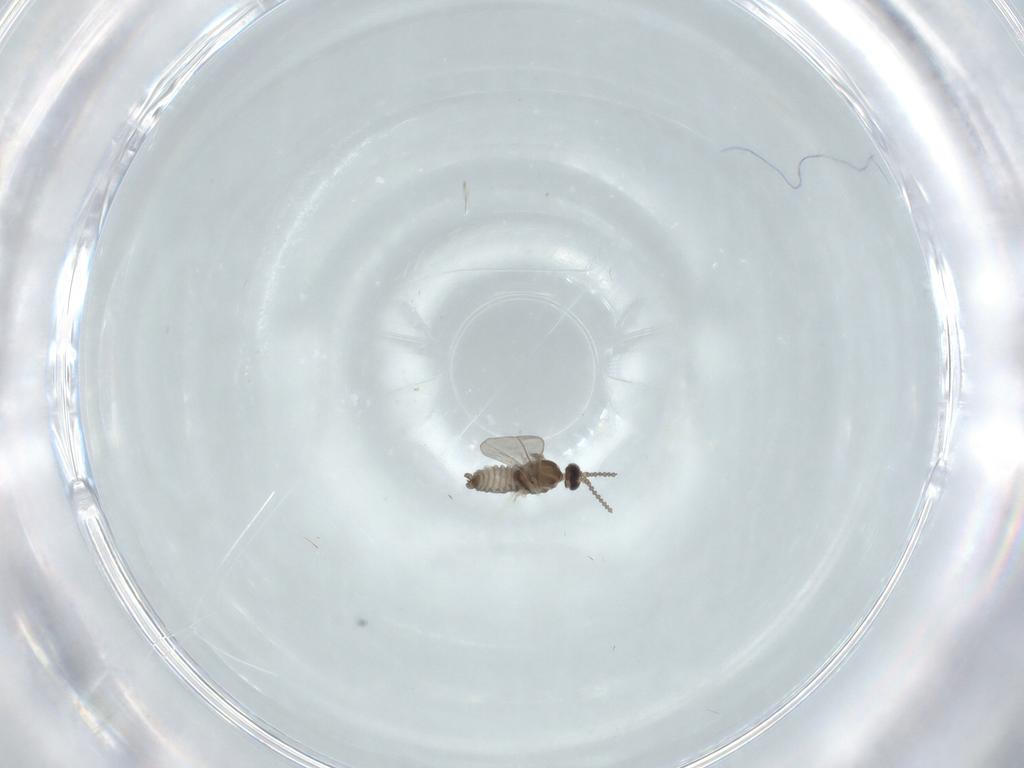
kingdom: Animalia
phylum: Arthropoda
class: Insecta
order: Diptera
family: Cecidomyiidae
